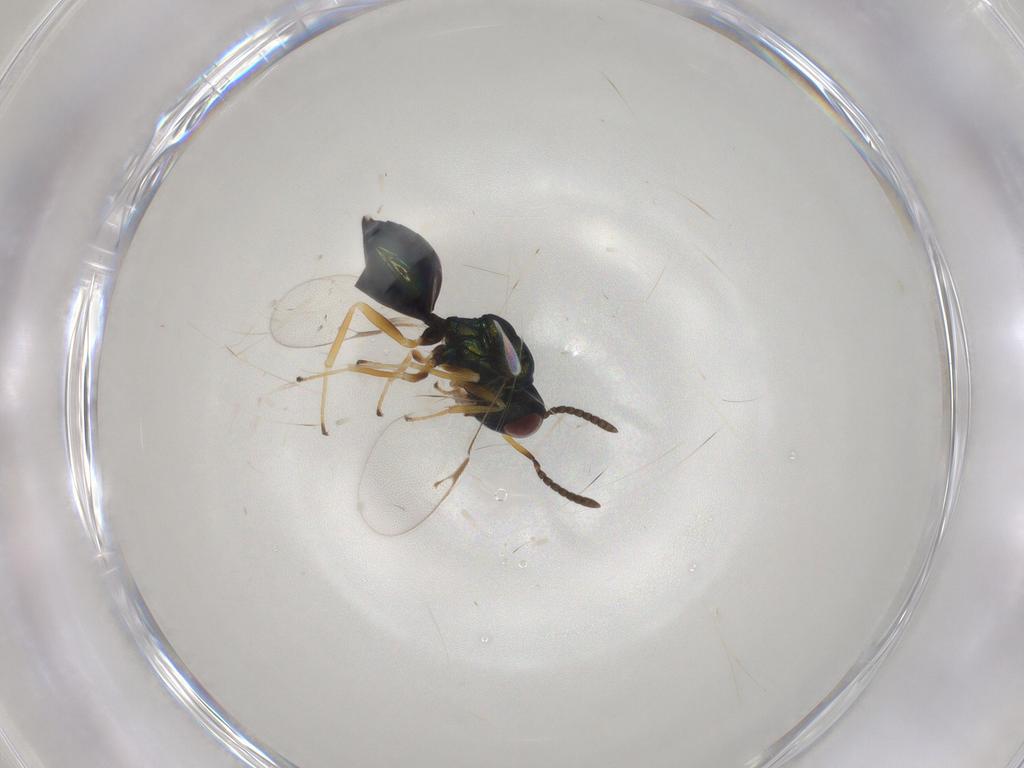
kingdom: Animalia
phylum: Arthropoda
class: Insecta
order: Hymenoptera
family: Pteromalidae
